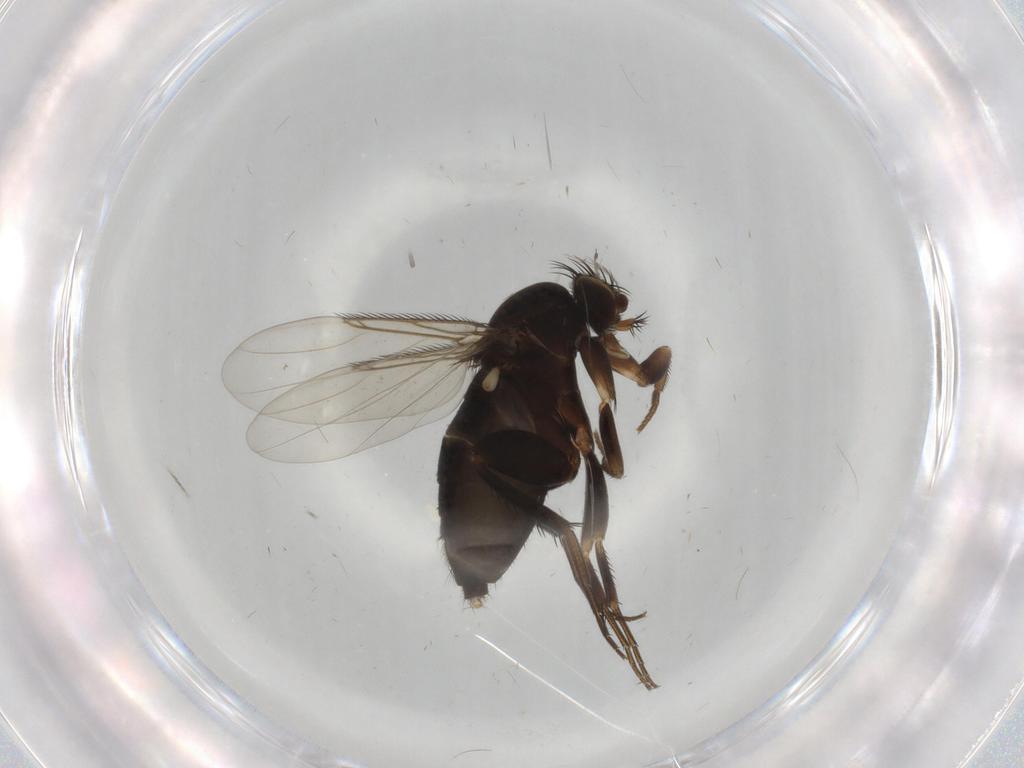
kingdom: Animalia
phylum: Arthropoda
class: Insecta
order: Diptera
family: Phoridae
